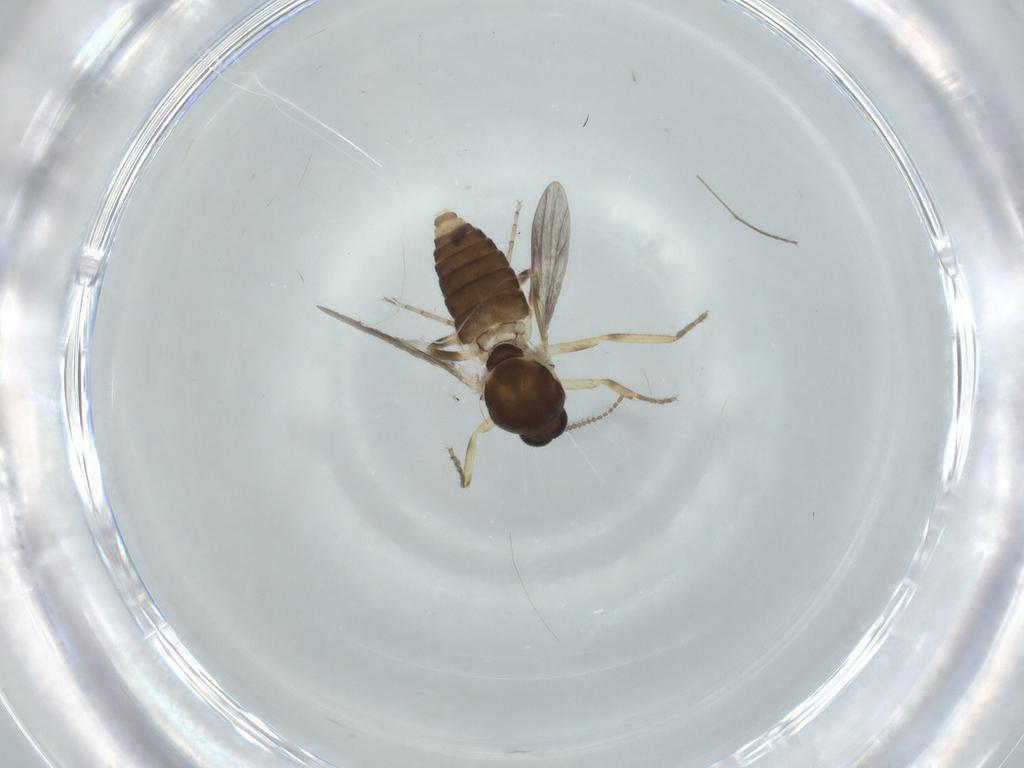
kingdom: Animalia
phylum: Arthropoda
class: Insecta
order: Diptera
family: Ceratopogonidae
